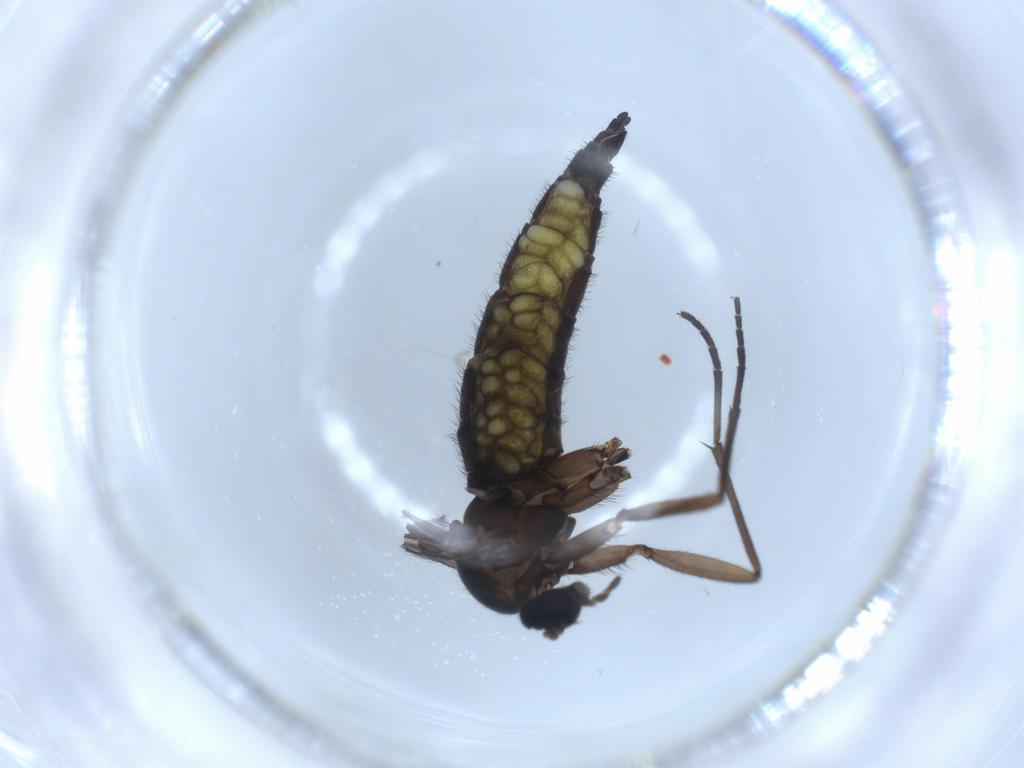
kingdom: Animalia
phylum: Arthropoda
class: Insecta
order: Diptera
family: Sciaridae
